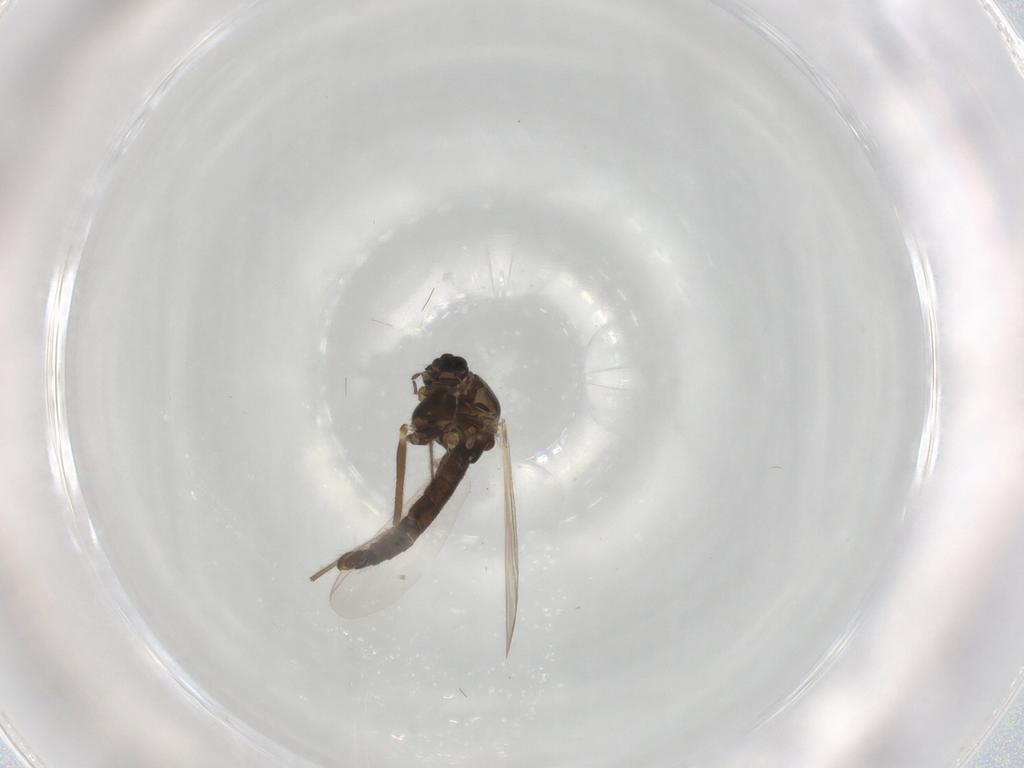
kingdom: Animalia
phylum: Arthropoda
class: Insecta
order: Diptera
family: Chironomidae
